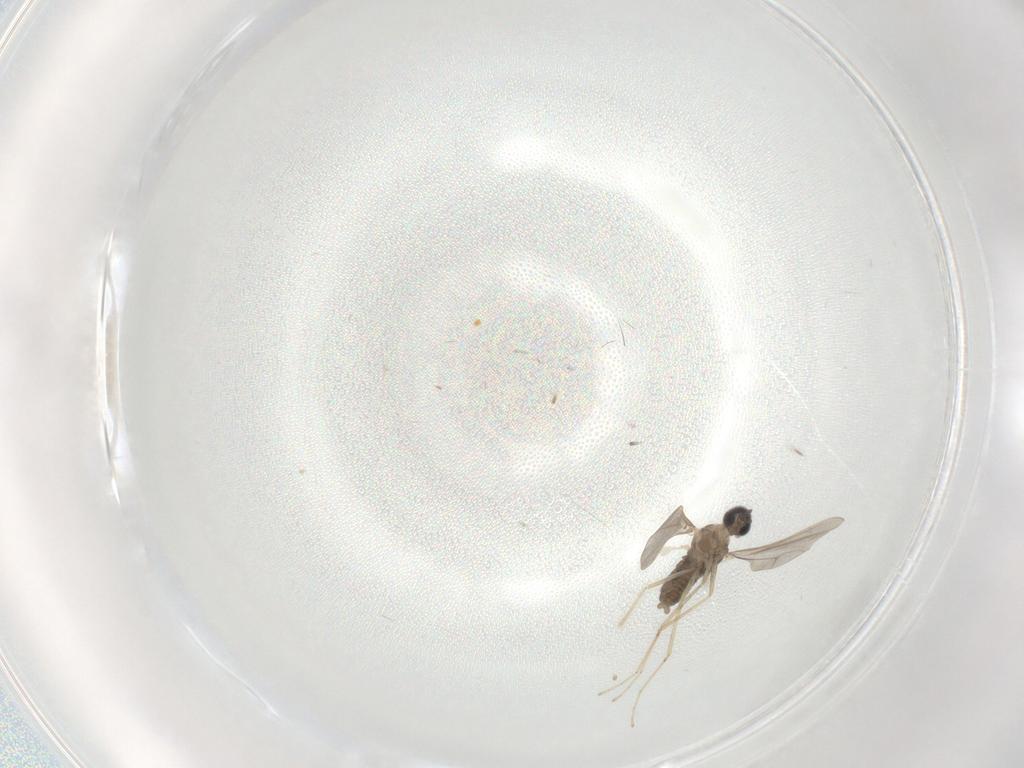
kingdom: Animalia
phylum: Arthropoda
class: Insecta
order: Diptera
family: Cecidomyiidae
